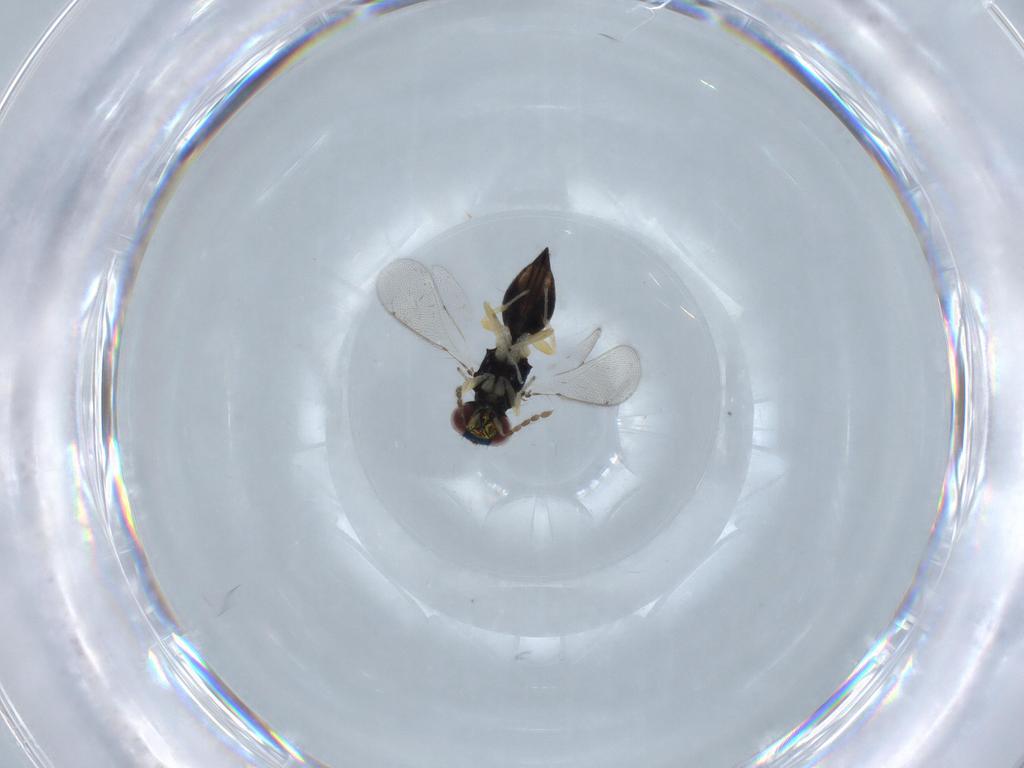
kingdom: Animalia
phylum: Arthropoda
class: Insecta
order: Hymenoptera
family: Eulophidae
